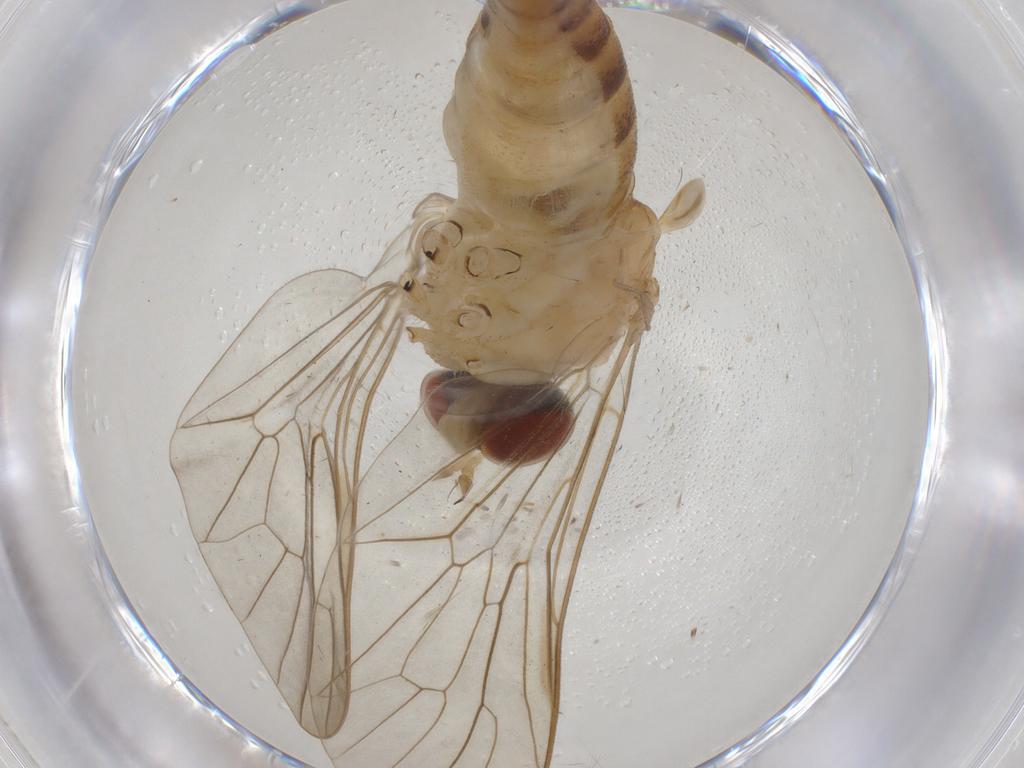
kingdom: Animalia
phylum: Arthropoda
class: Insecta
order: Diptera
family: Apsilocephalidae
